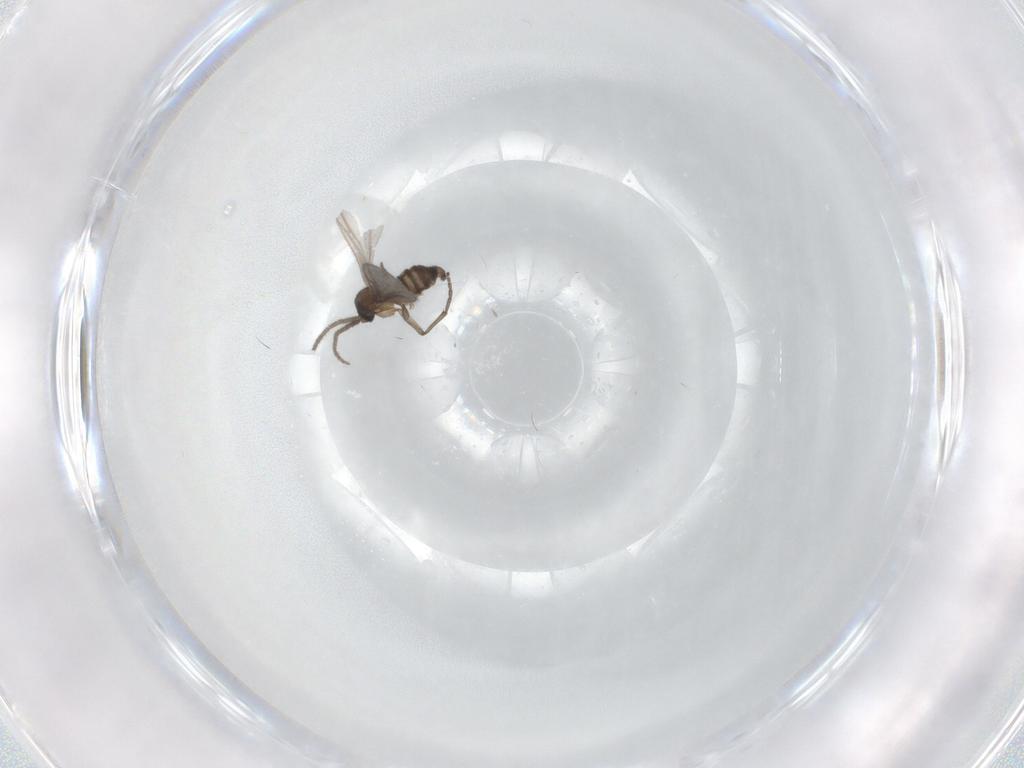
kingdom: Animalia
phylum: Arthropoda
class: Insecta
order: Diptera
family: Sciaridae
